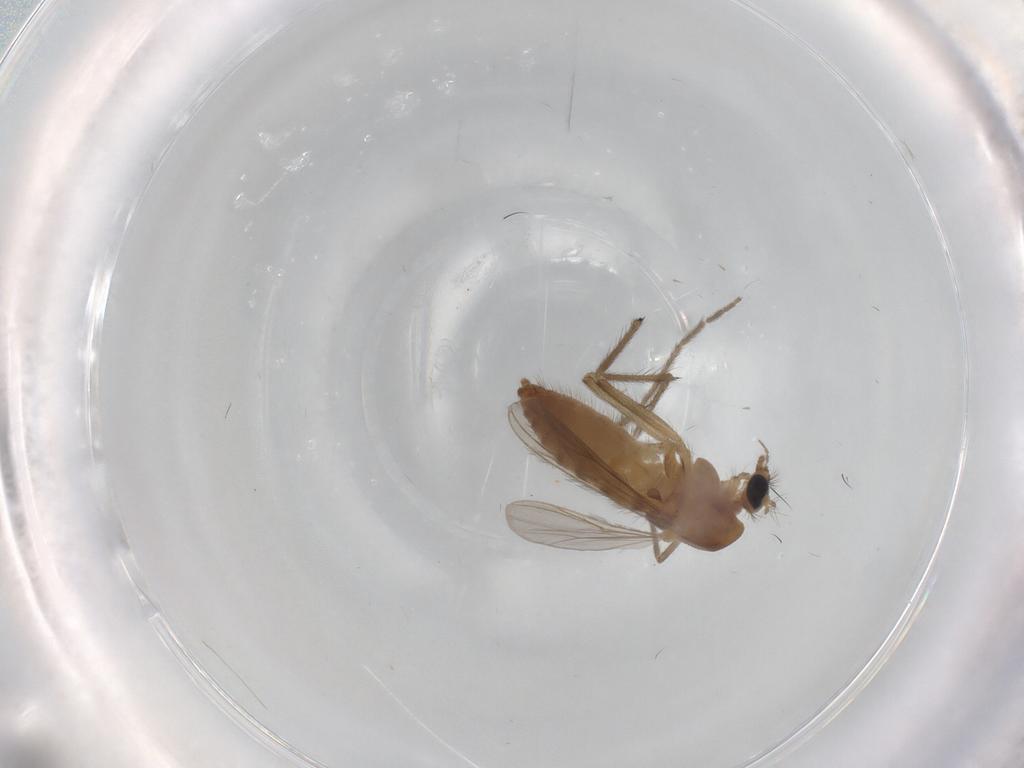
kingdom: Animalia
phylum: Arthropoda
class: Insecta
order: Diptera
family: Chironomidae
